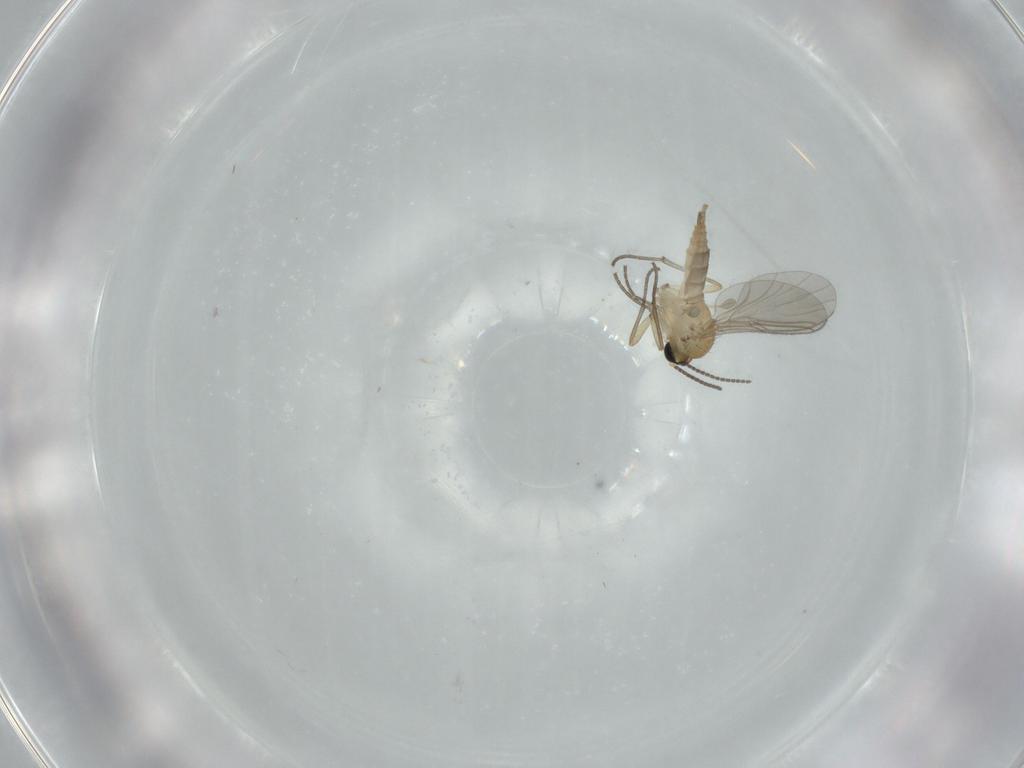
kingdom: Animalia
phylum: Arthropoda
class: Insecta
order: Diptera
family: Sciaridae
